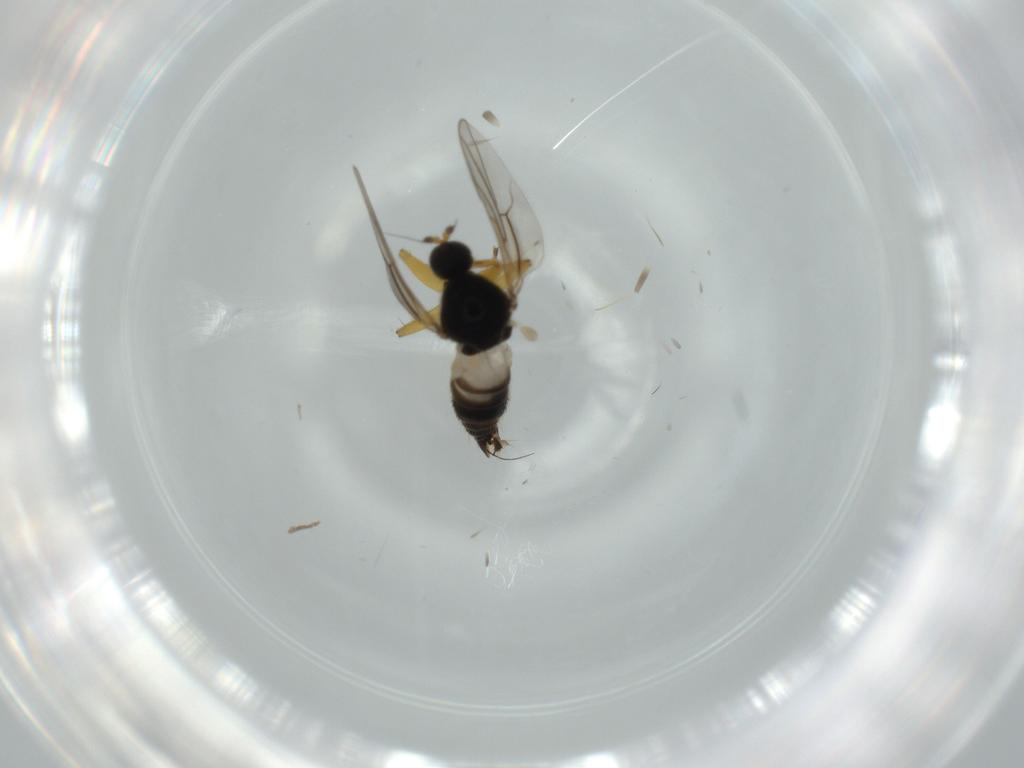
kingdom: Animalia
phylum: Arthropoda
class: Insecta
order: Diptera
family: Hybotidae
